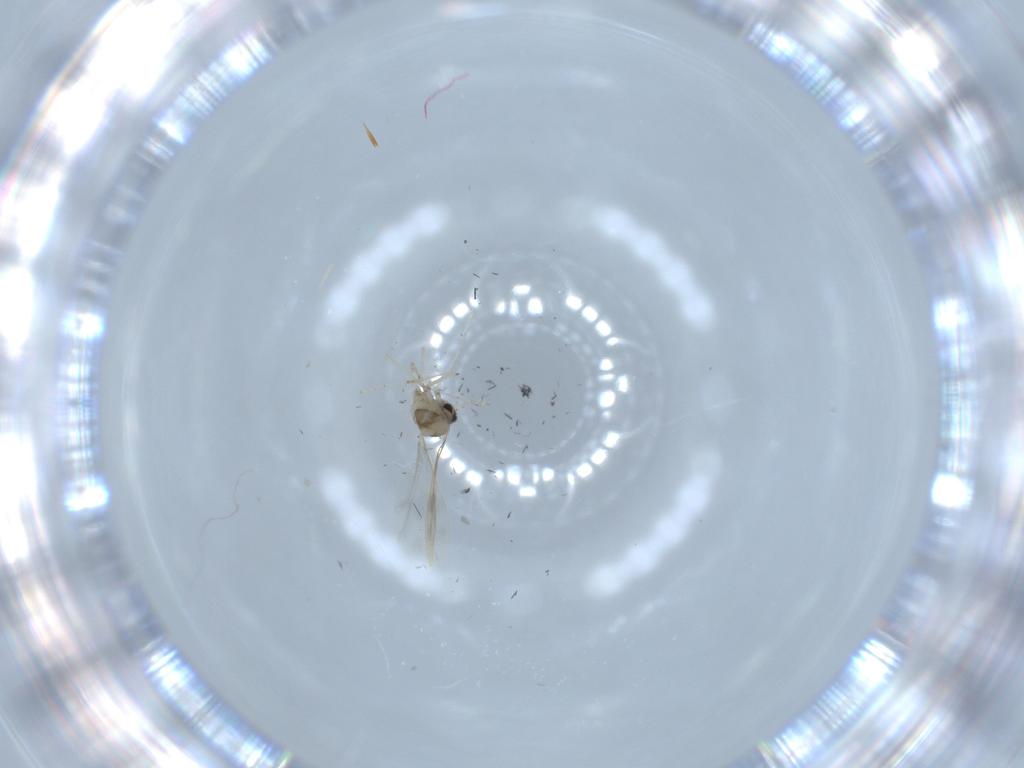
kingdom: Animalia
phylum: Arthropoda
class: Insecta
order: Diptera
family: Cecidomyiidae
